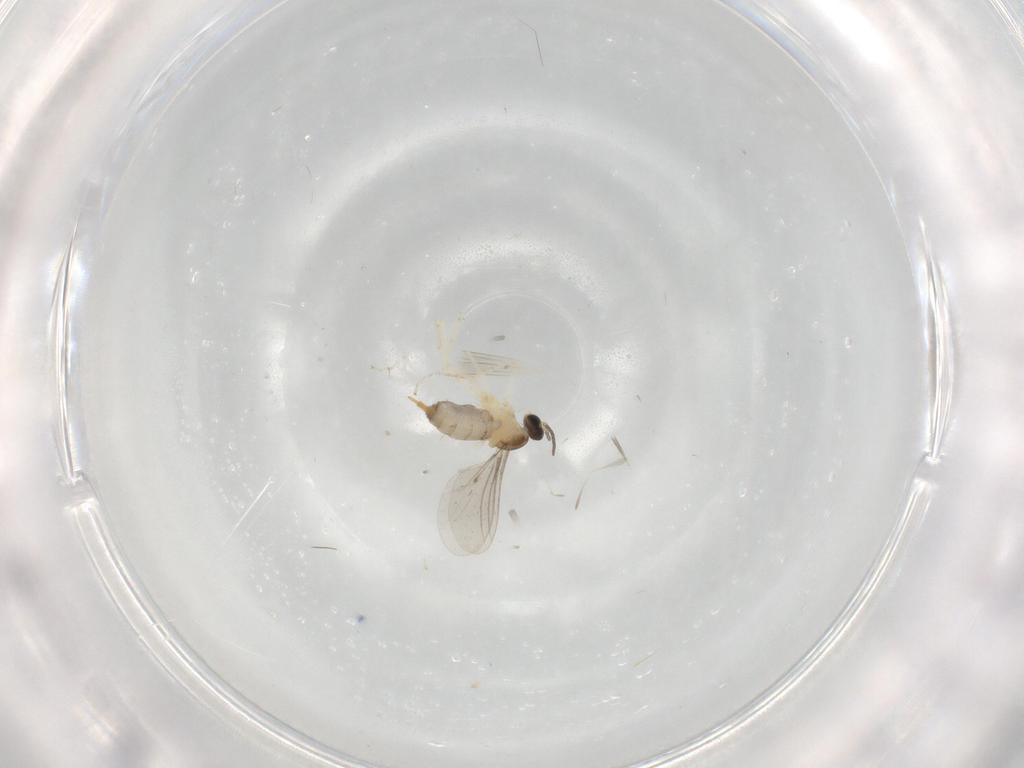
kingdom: Animalia
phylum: Arthropoda
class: Insecta
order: Diptera
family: Cecidomyiidae
